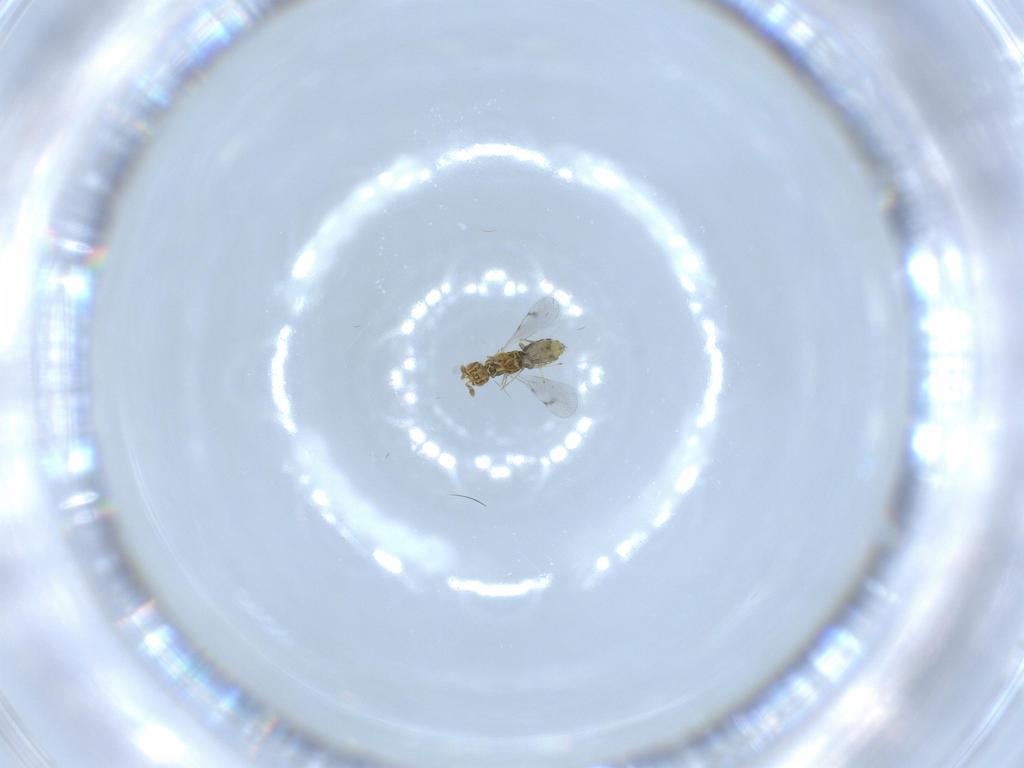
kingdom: Animalia
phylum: Arthropoda
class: Insecta
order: Hymenoptera
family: Eulophidae
